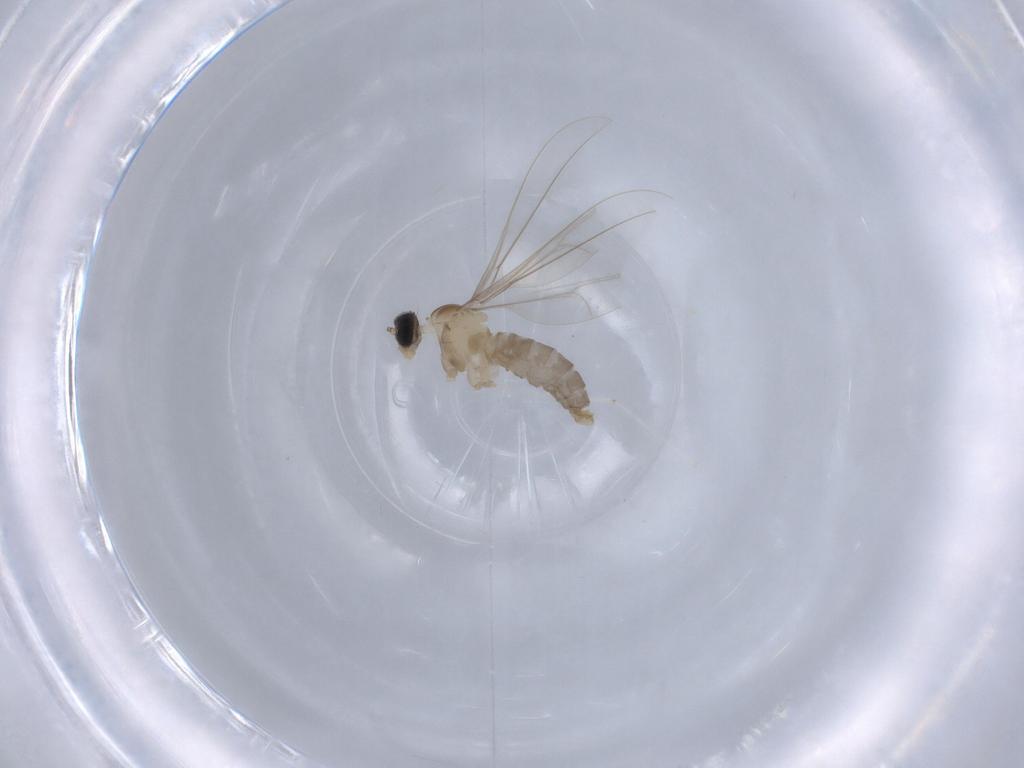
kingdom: Animalia
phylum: Arthropoda
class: Insecta
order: Diptera
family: Cecidomyiidae
